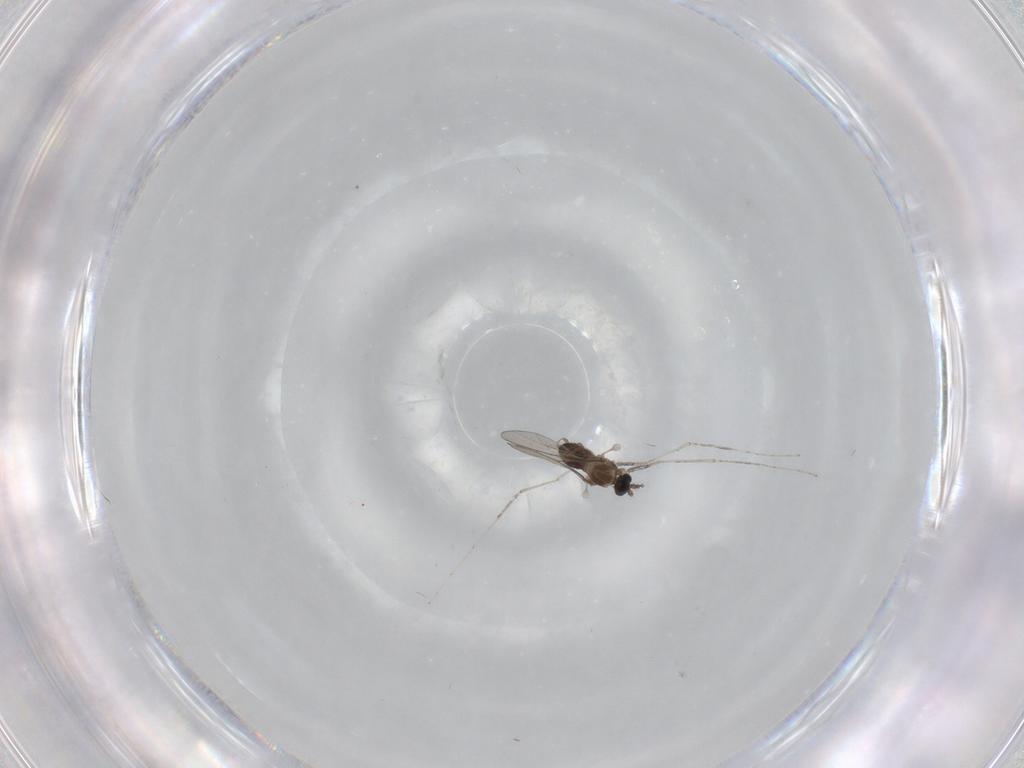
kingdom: Animalia
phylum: Arthropoda
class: Insecta
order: Diptera
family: Cecidomyiidae
